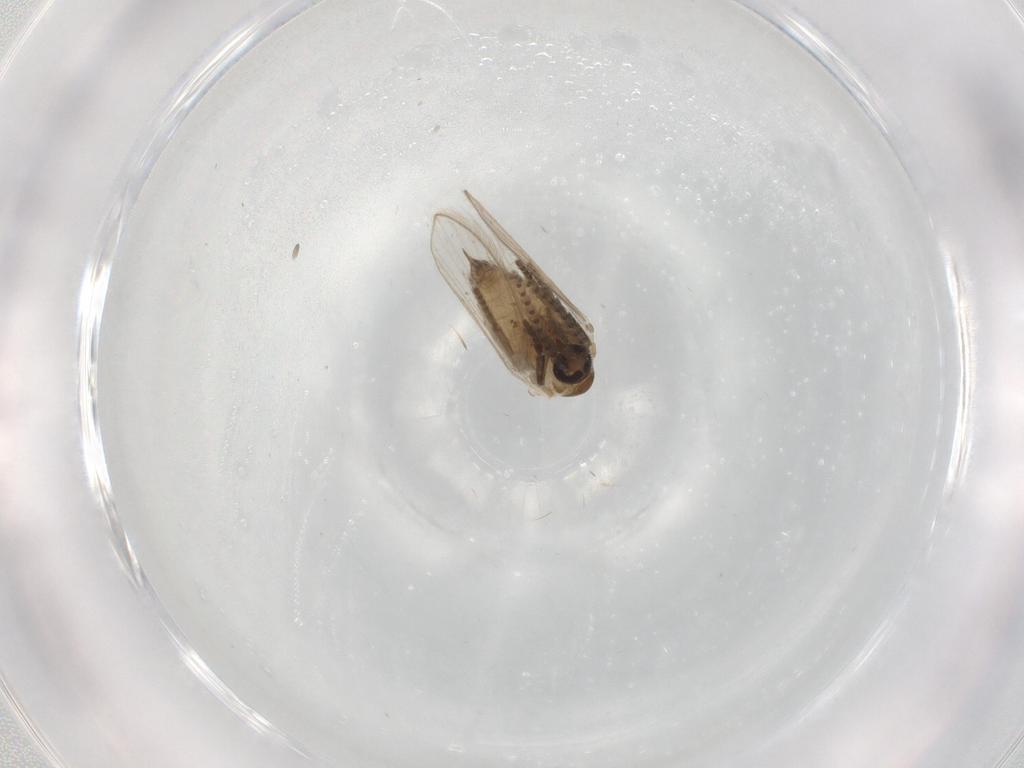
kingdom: Animalia
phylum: Arthropoda
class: Insecta
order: Diptera
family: Psychodidae
